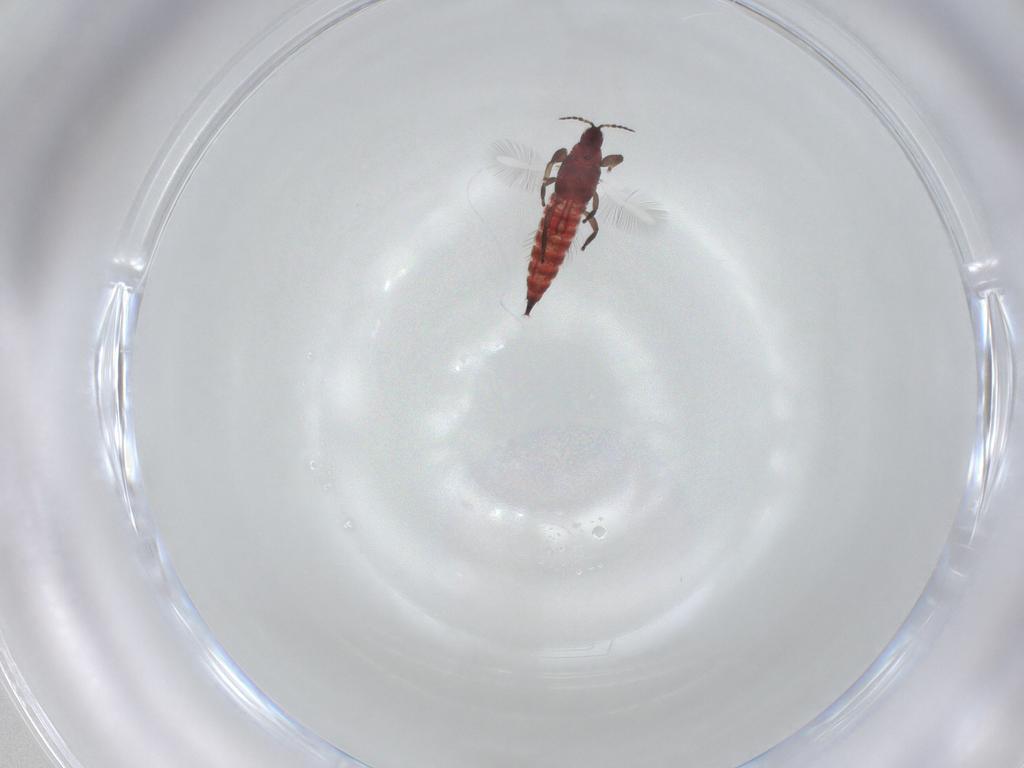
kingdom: Animalia
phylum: Arthropoda
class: Insecta
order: Thysanoptera
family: Phlaeothripidae
